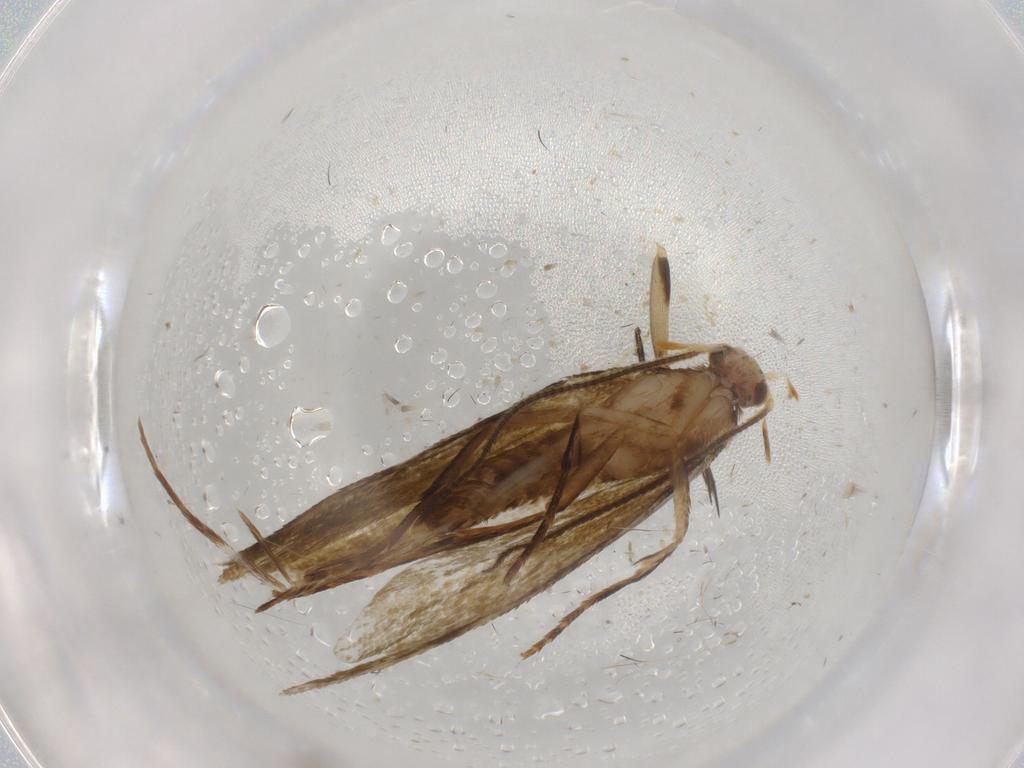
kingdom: Animalia
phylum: Arthropoda
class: Insecta
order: Lepidoptera
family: Tineidae
